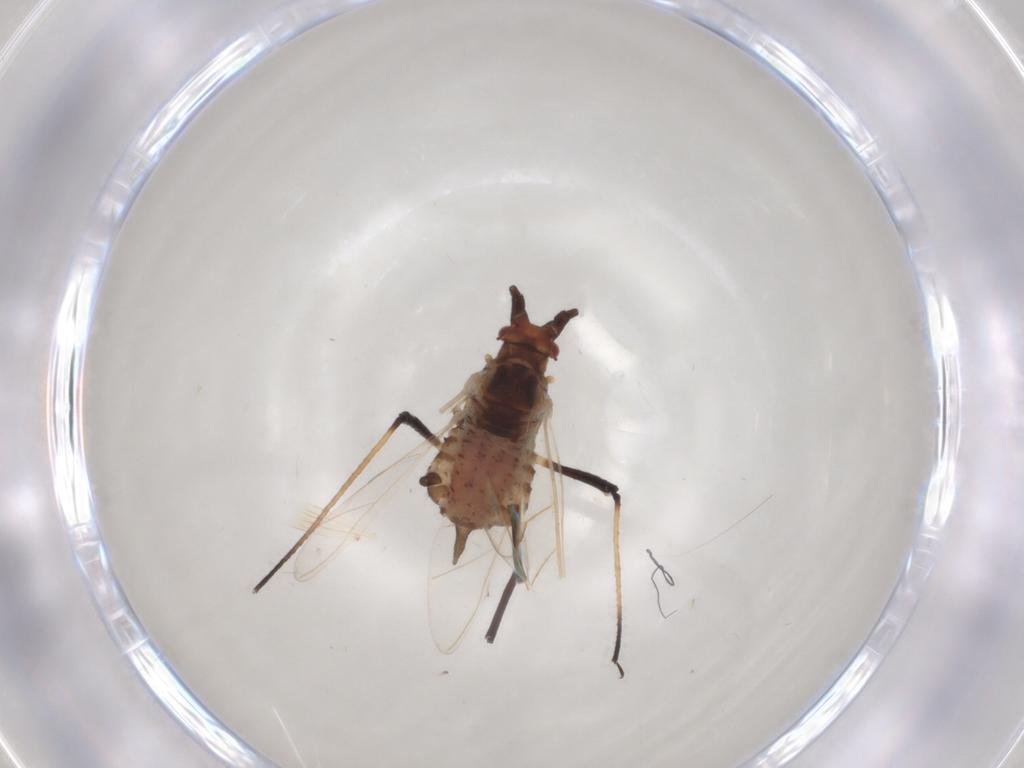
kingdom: Animalia
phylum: Arthropoda
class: Insecta
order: Hemiptera
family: Aphididae
